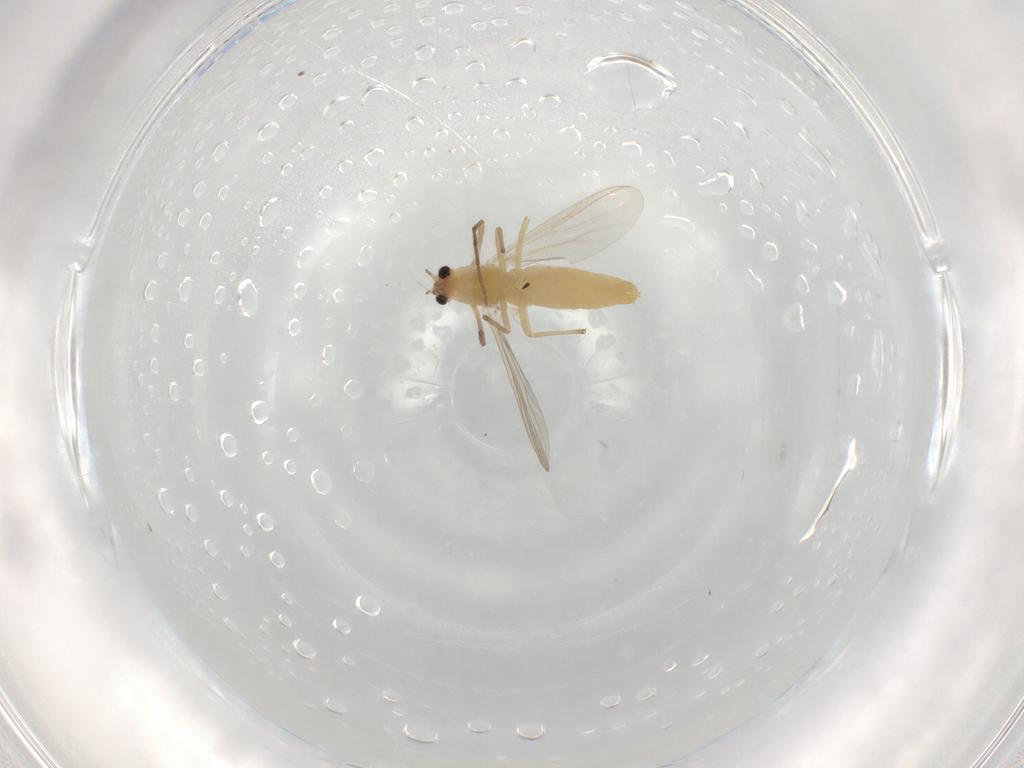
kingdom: Animalia
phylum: Arthropoda
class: Insecta
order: Diptera
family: Chironomidae
